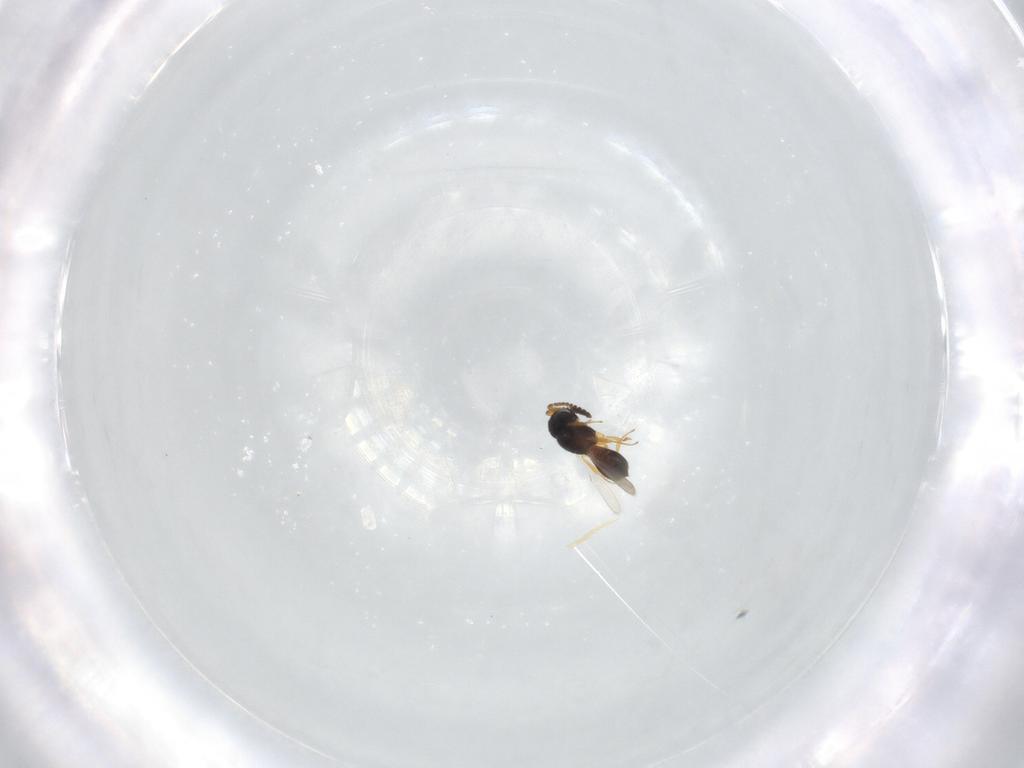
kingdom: Animalia
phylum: Arthropoda
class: Insecta
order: Hymenoptera
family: Scelionidae
